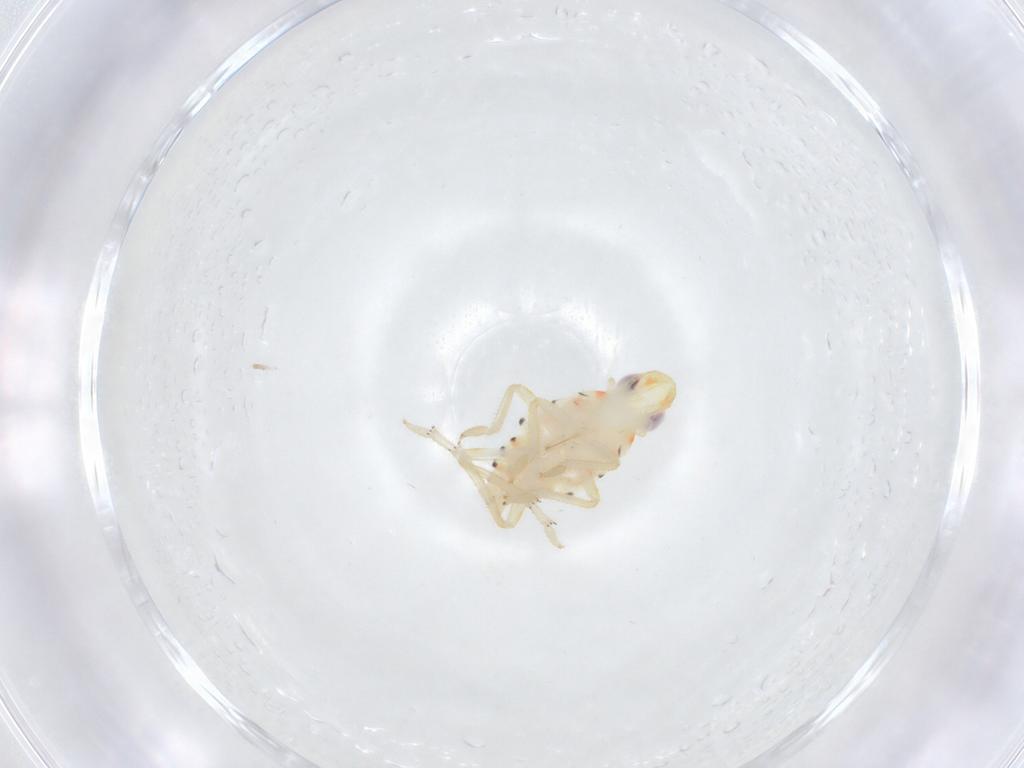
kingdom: Animalia
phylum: Arthropoda
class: Insecta
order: Hemiptera
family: Tropiduchidae
